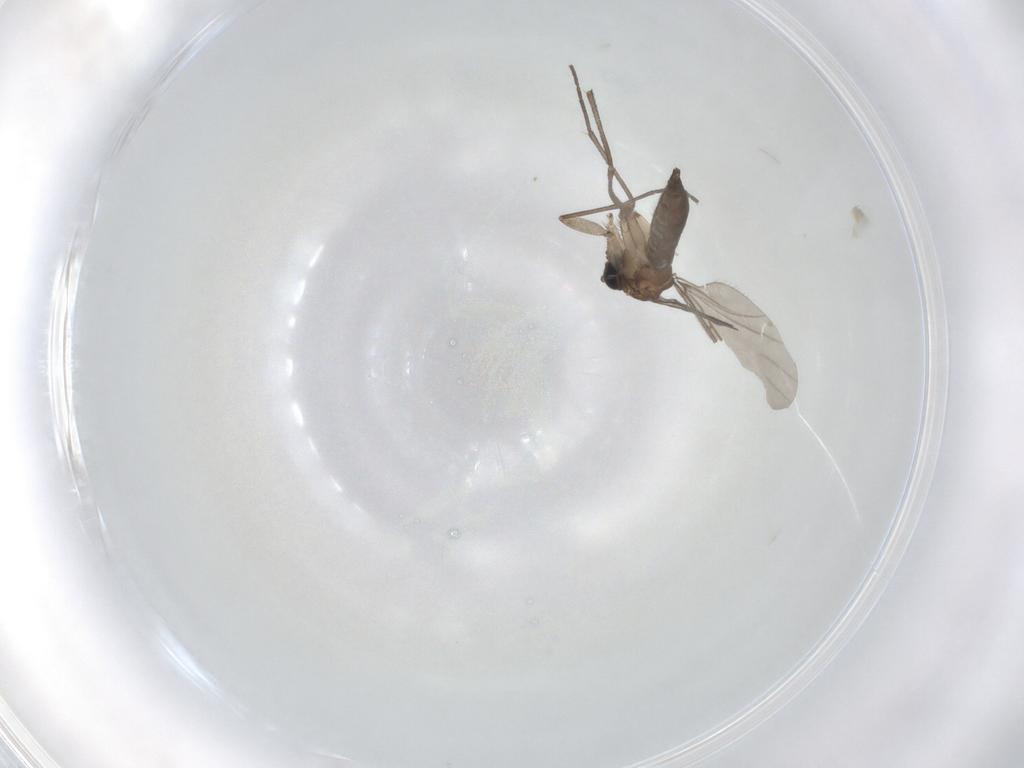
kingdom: Animalia
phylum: Arthropoda
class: Insecta
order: Diptera
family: Sciaridae
